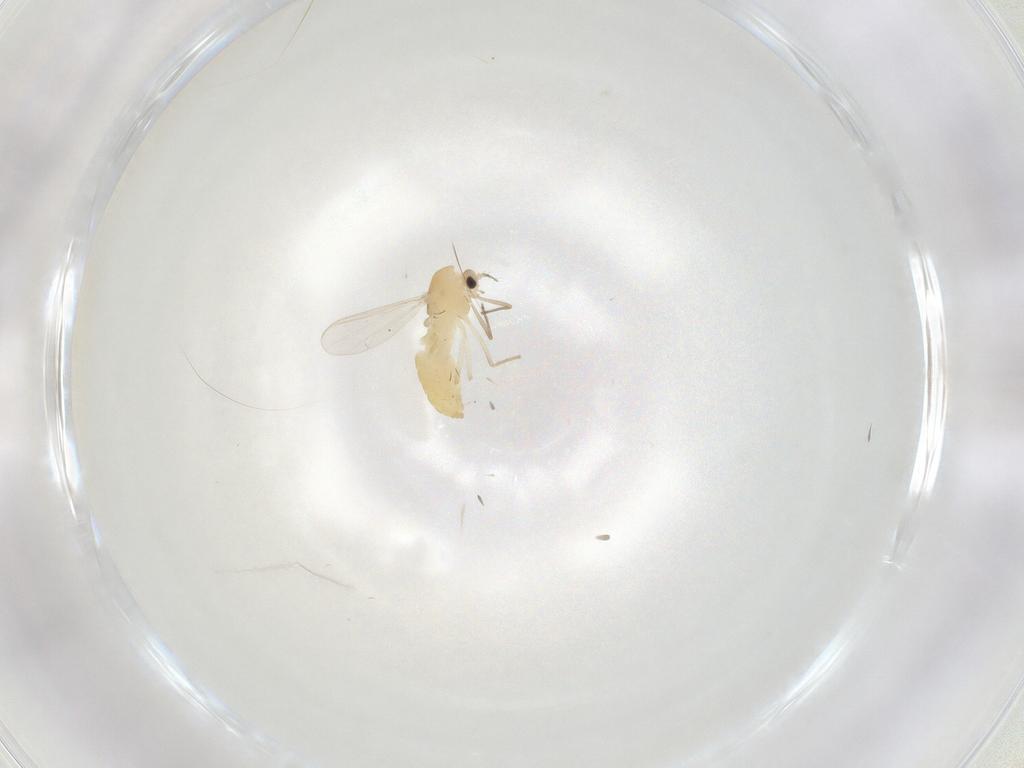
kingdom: Animalia
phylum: Arthropoda
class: Insecta
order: Diptera
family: Chironomidae
